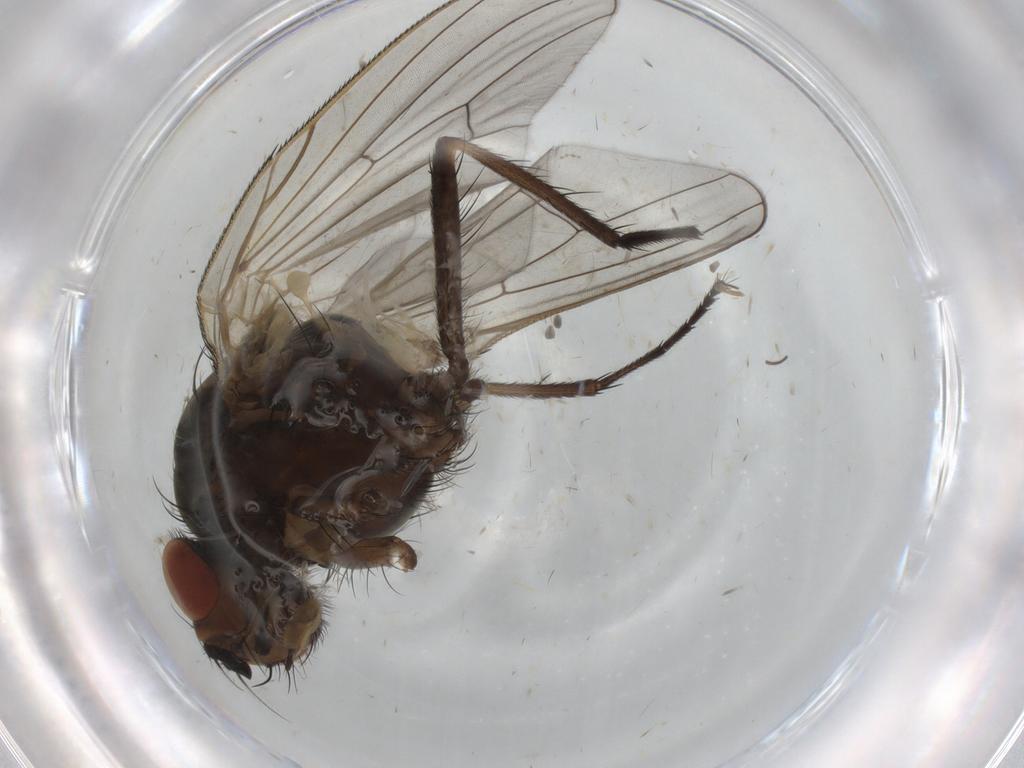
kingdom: Animalia
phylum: Arthropoda
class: Insecta
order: Diptera
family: Anthomyiidae
